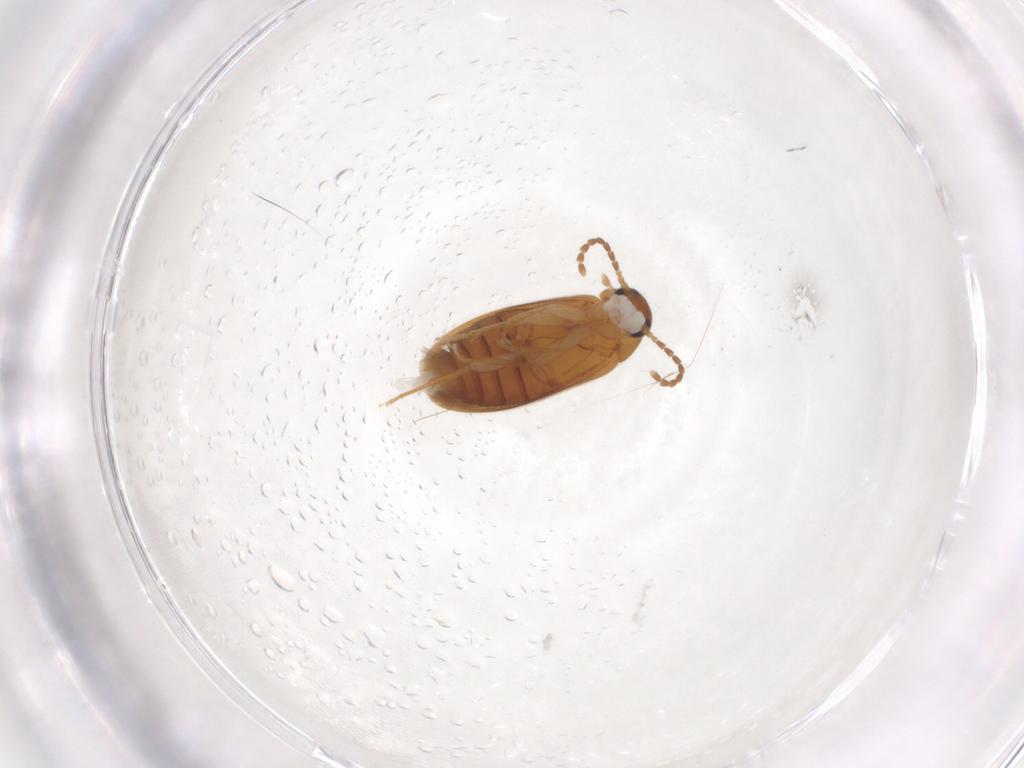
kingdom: Animalia
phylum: Arthropoda
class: Insecta
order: Coleoptera
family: Scraptiidae
